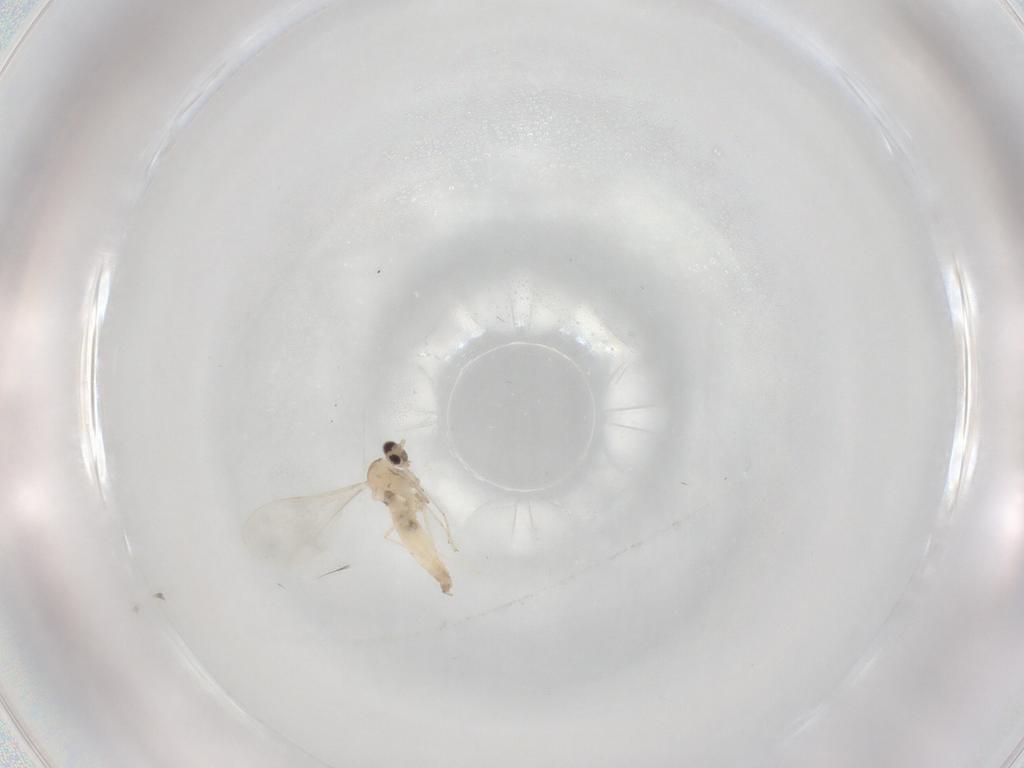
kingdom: Animalia
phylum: Arthropoda
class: Insecta
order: Diptera
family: Cecidomyiidae
